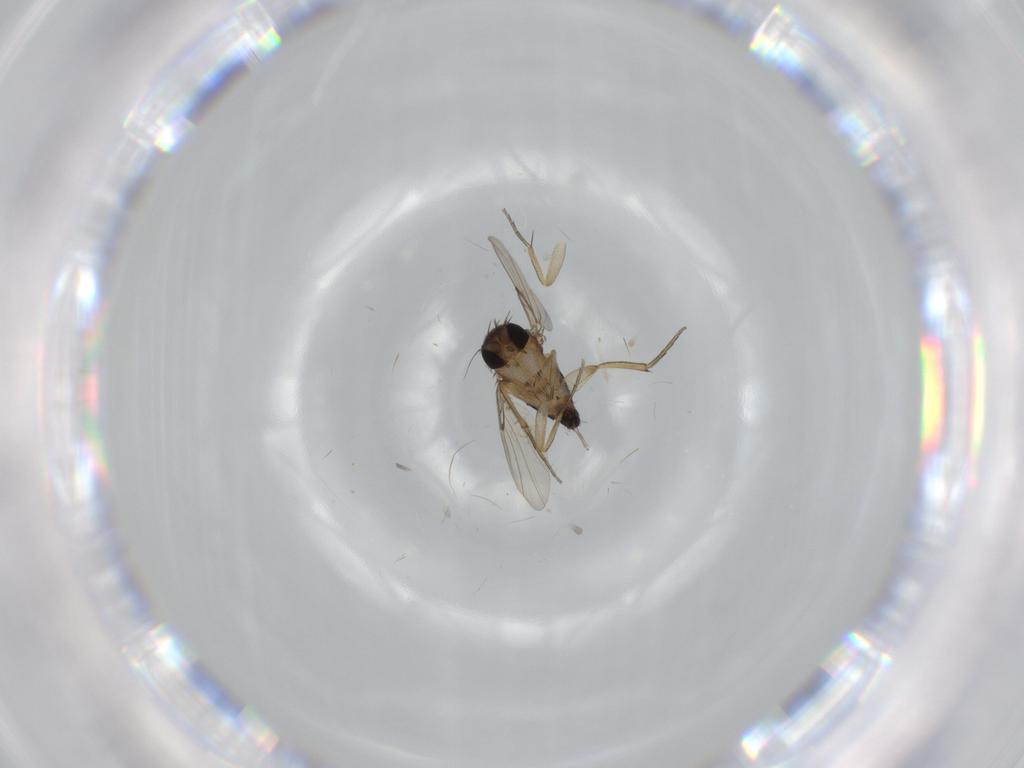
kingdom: Animalia
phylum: Arthropoda
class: Insecta
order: Diptera
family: Phoridae
